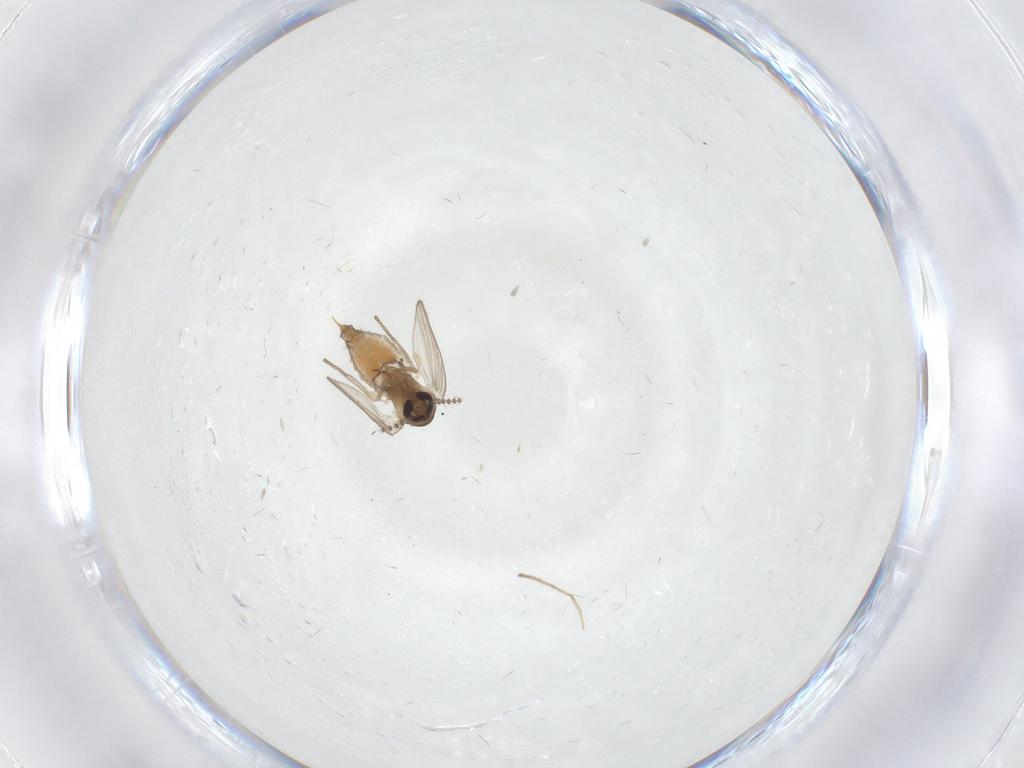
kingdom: Animalia
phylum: Arthropoda
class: Insecta
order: Diptera
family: Psychodidae
